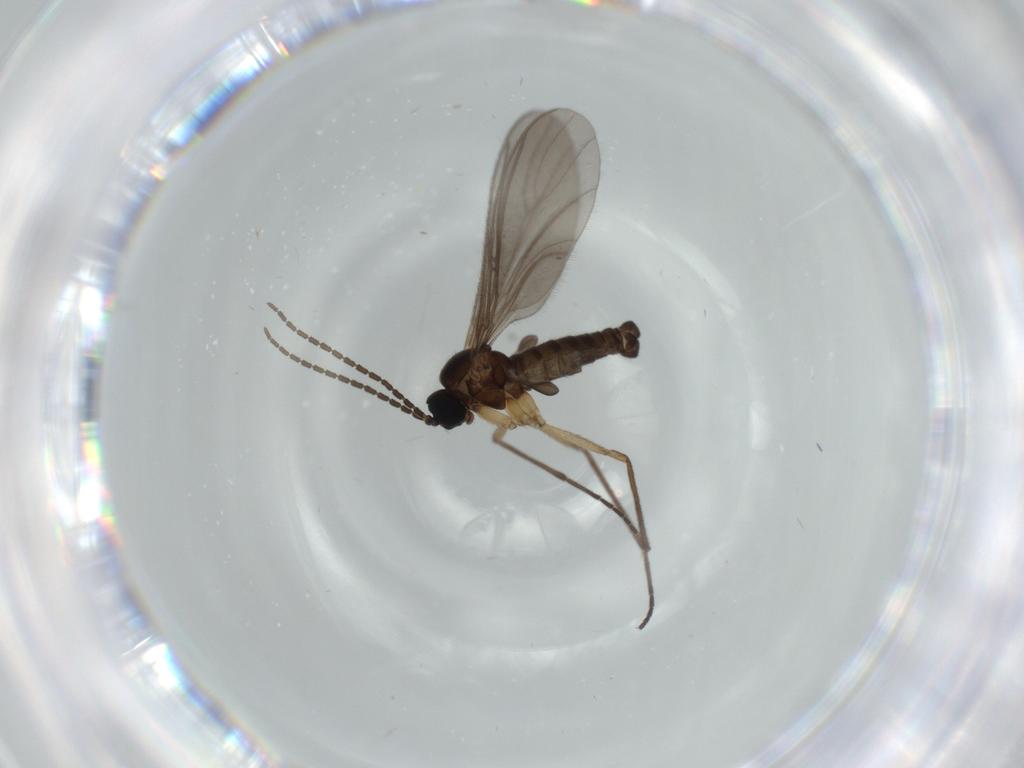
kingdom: Animalia
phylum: Arthropoda
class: Insecta
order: Diptera
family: Sciaridae
